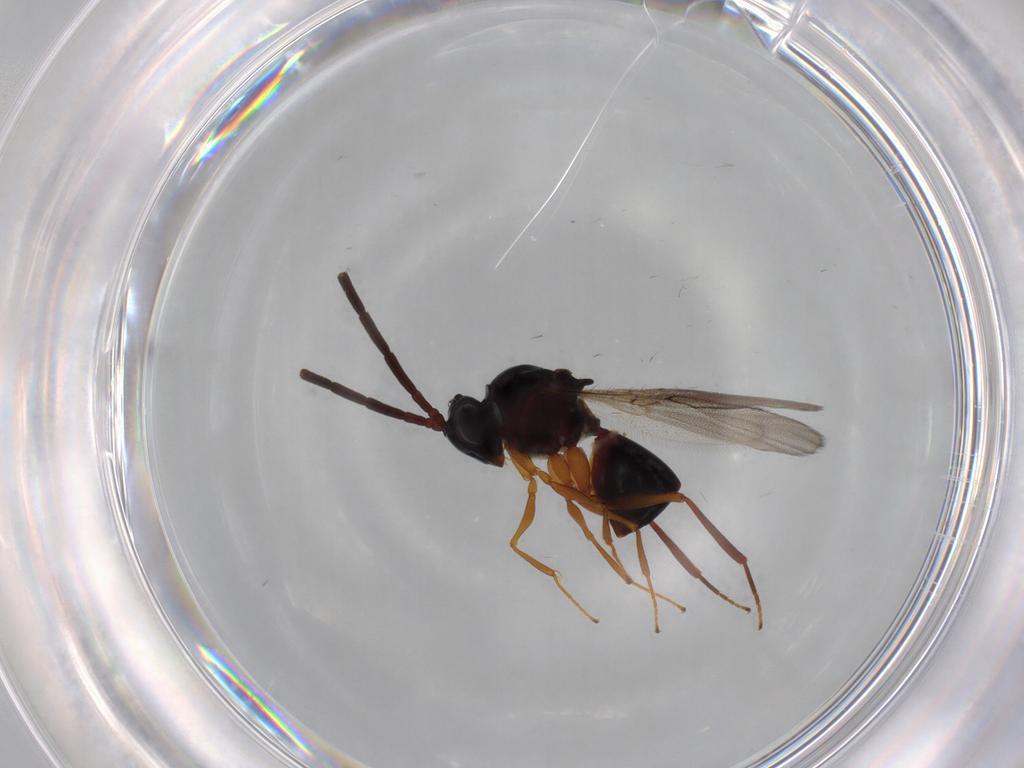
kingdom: Animalia
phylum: Arthropoda
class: Insecta
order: Hymenoptera
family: Figitidae
